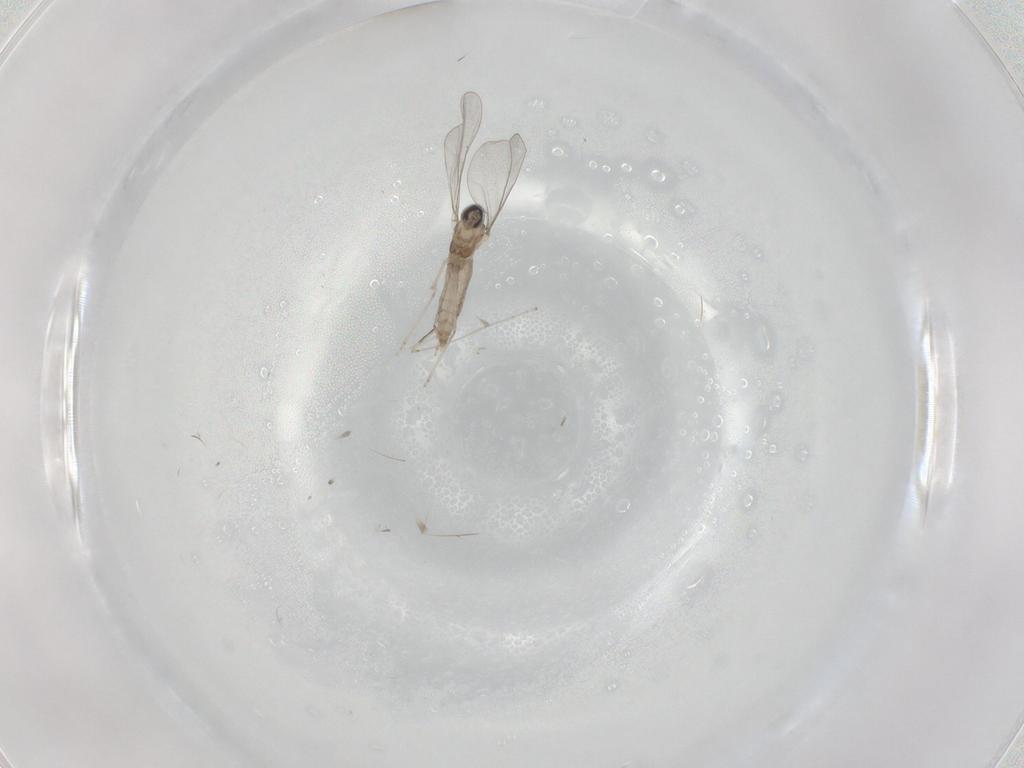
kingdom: Animalia
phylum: Arthropoda
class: Insecta
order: Diptera
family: Cecidomyiidae
